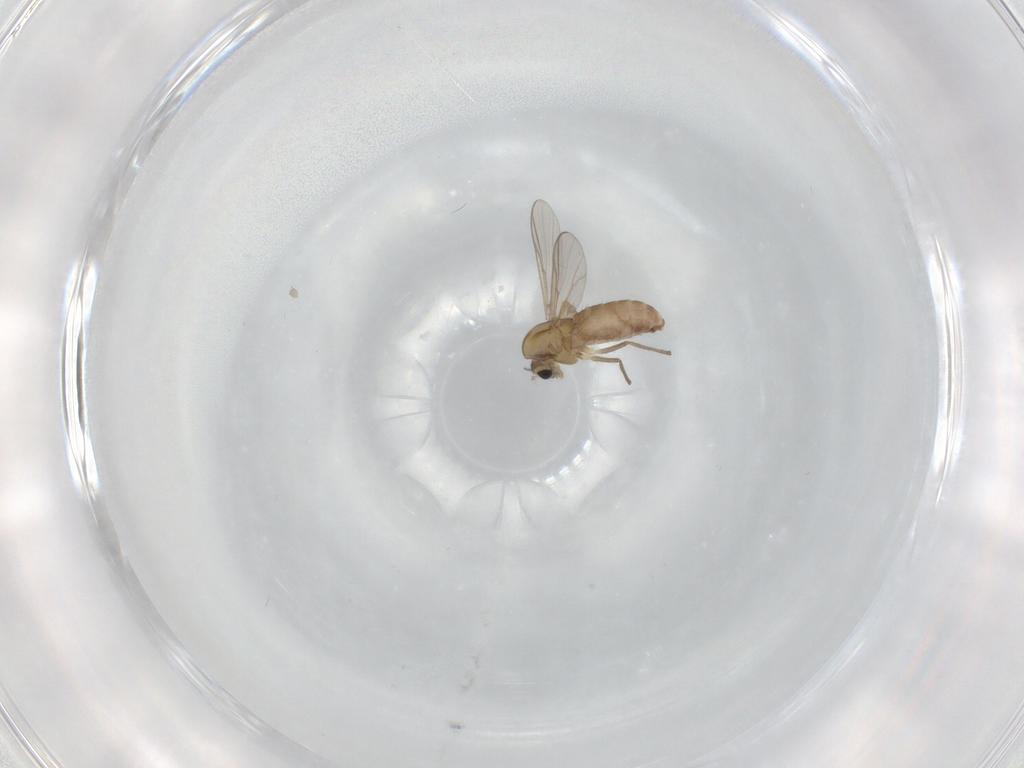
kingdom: Animalia
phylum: Arthropoda
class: Insecta
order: Diptera
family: Chironomidae
